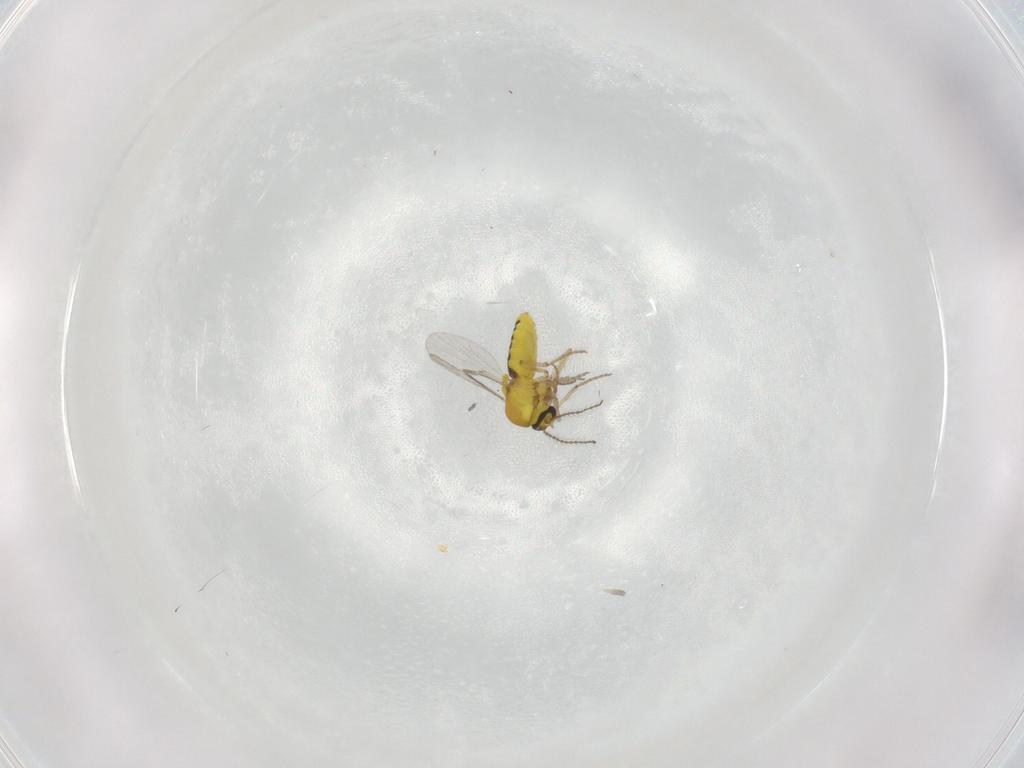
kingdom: Animalia
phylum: Arthropoda
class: Insecta
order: Diptera
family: Ceratopogonidae
